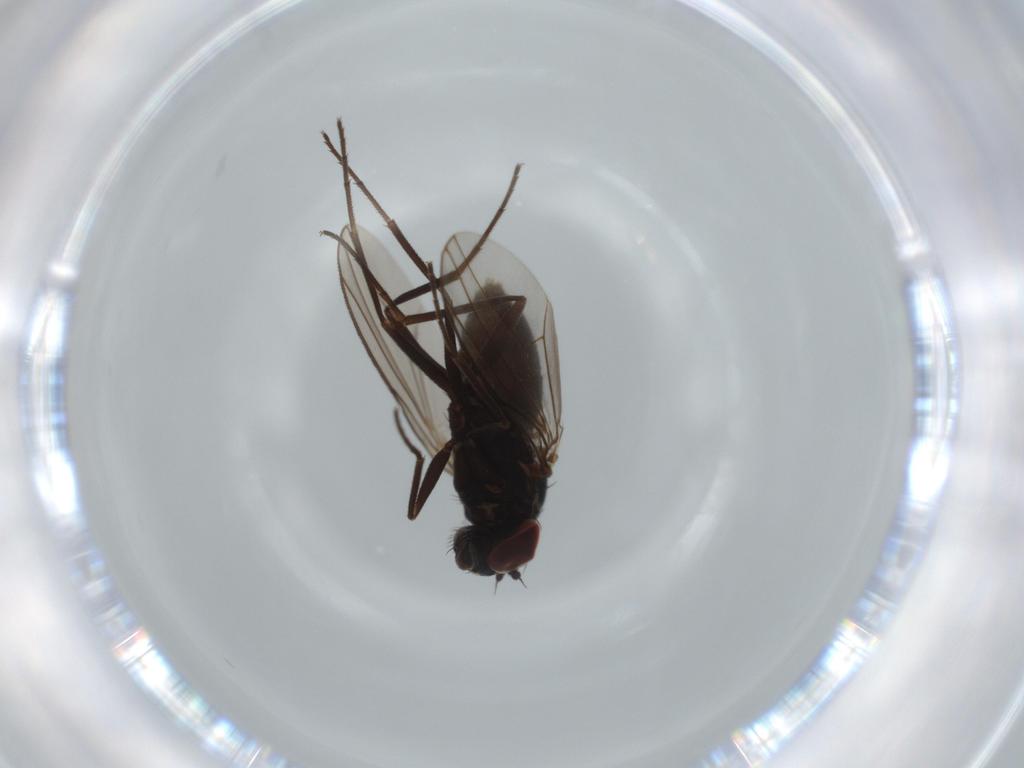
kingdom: Animalia
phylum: Arthropoda
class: Insecta
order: Diptera
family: Dolichopodidae
